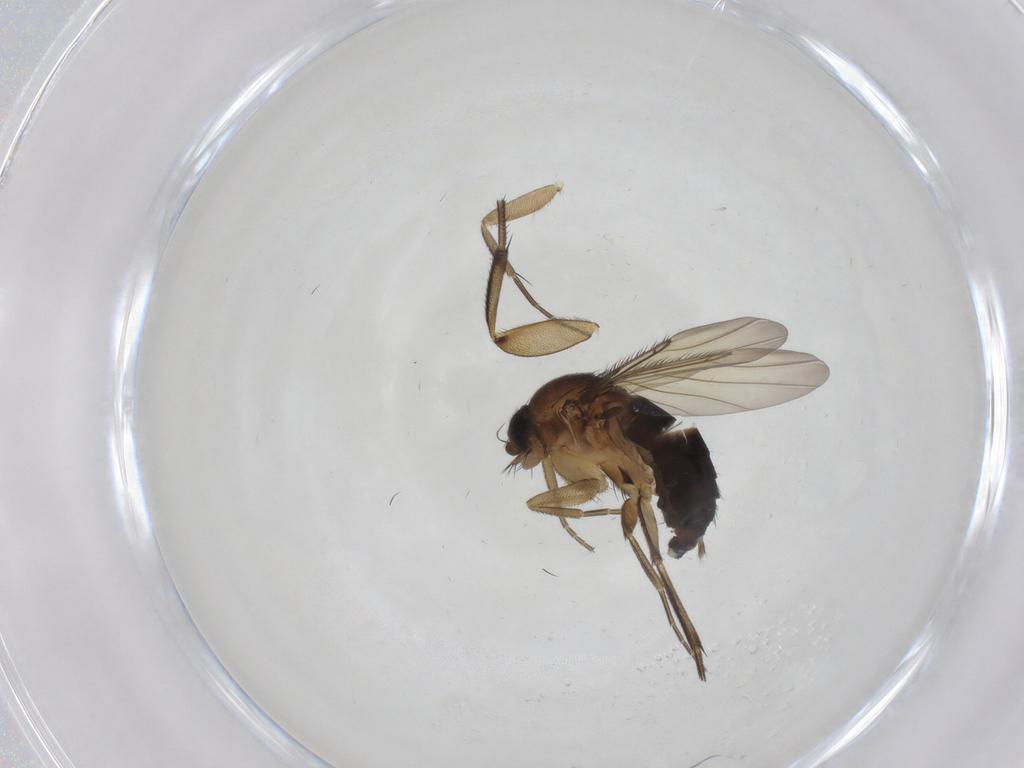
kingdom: Animalia
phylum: Arthropoda
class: Insecta
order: Diptera
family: Phoridae
